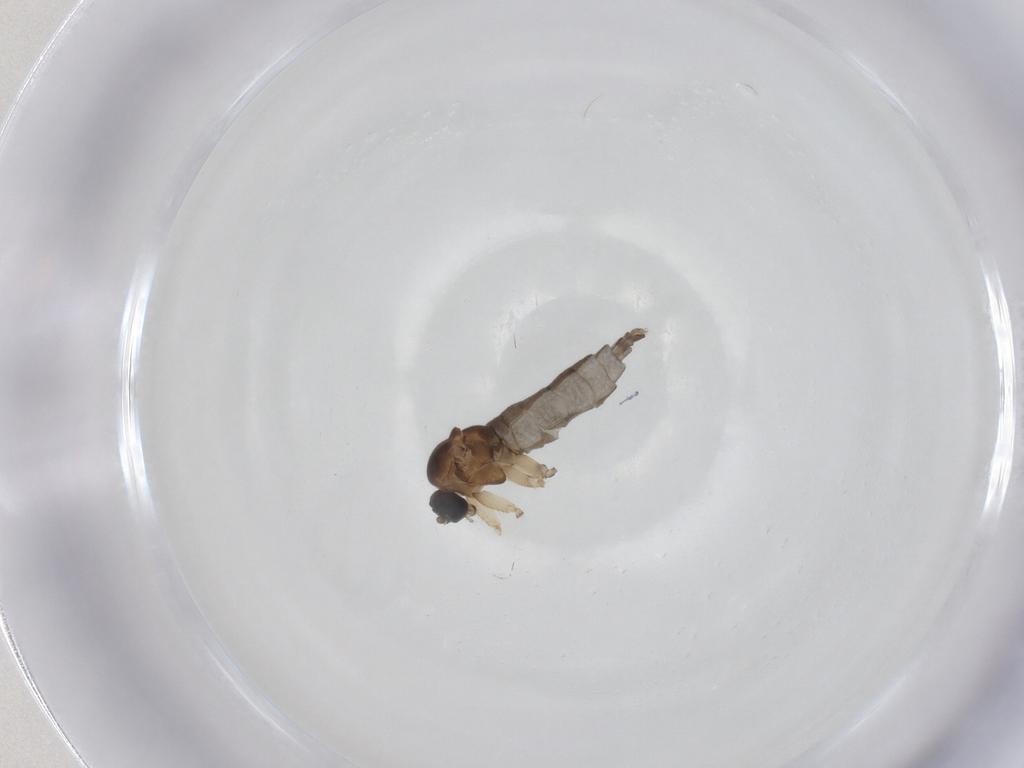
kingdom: Animalia
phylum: Arthropoda
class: Insecta
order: Diptera
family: Sciaridae
